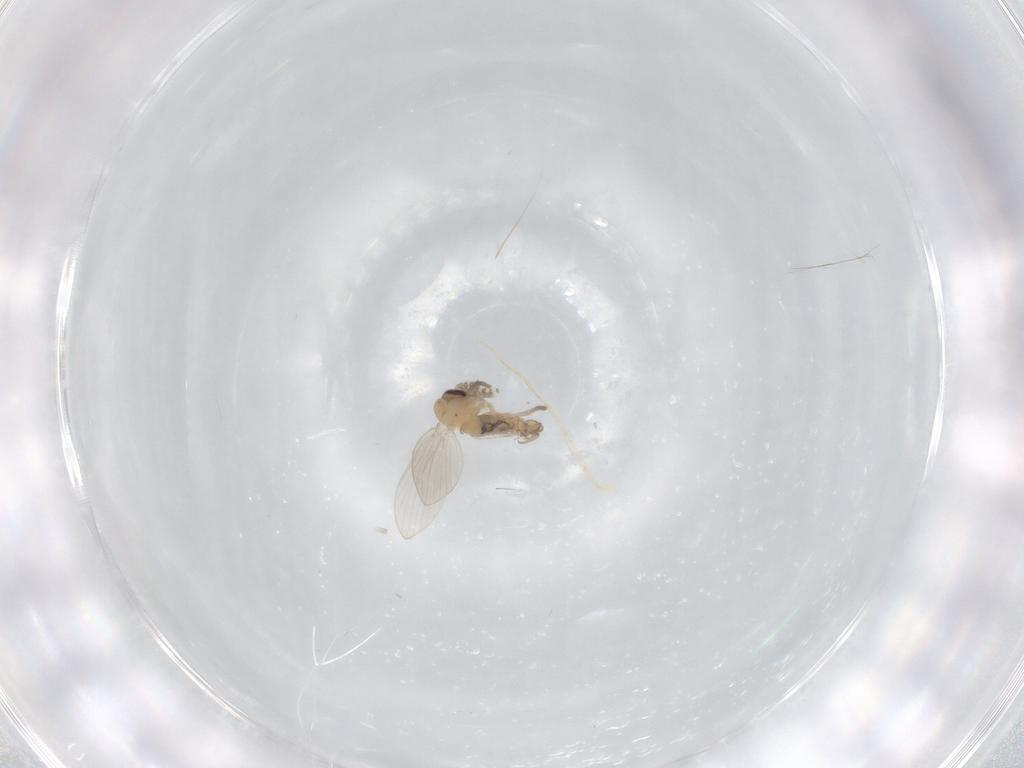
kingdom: Animalia
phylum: Arthropoda
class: Insecta
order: Diptera
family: Chloropidae
